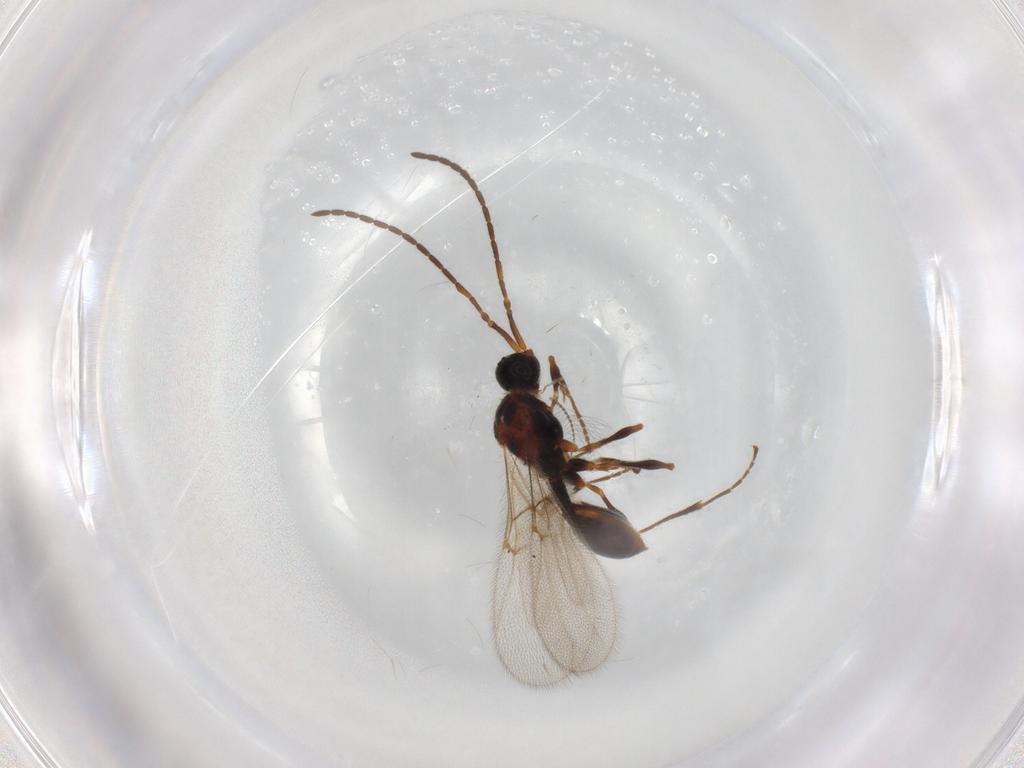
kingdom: Animalia
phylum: Arthropoda
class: Insecta
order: Hymenoptera
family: Diapriidae
